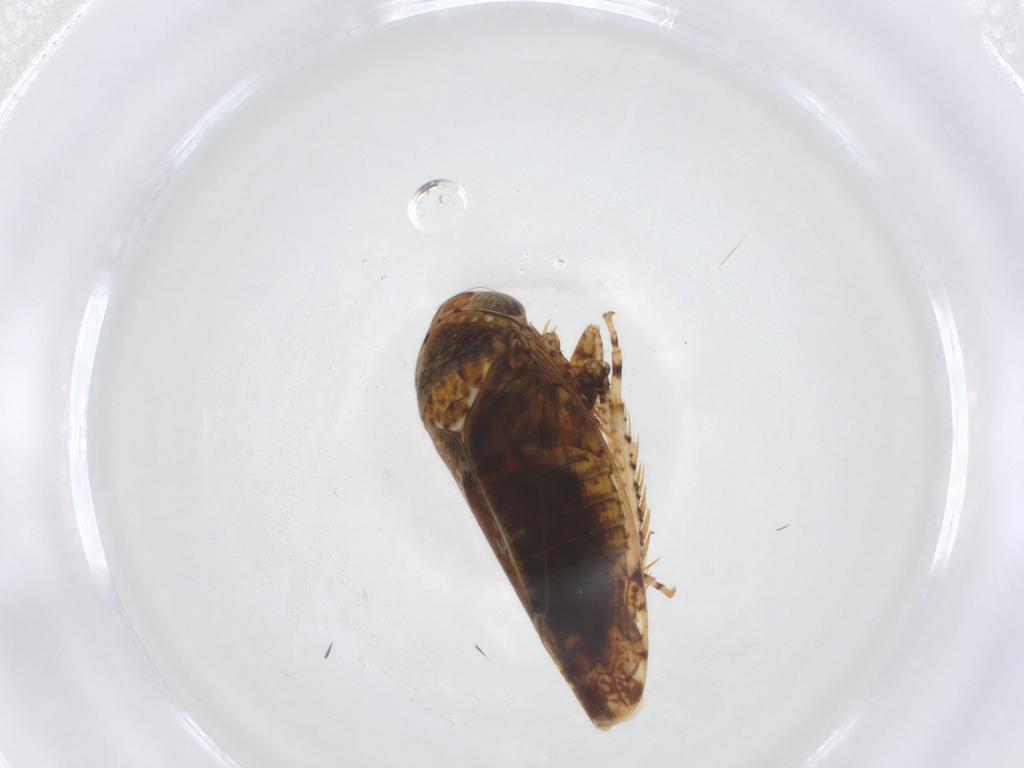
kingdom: Animalia
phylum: Arthropoda
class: Insecta
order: Hemiptera
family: Cicadellidae
